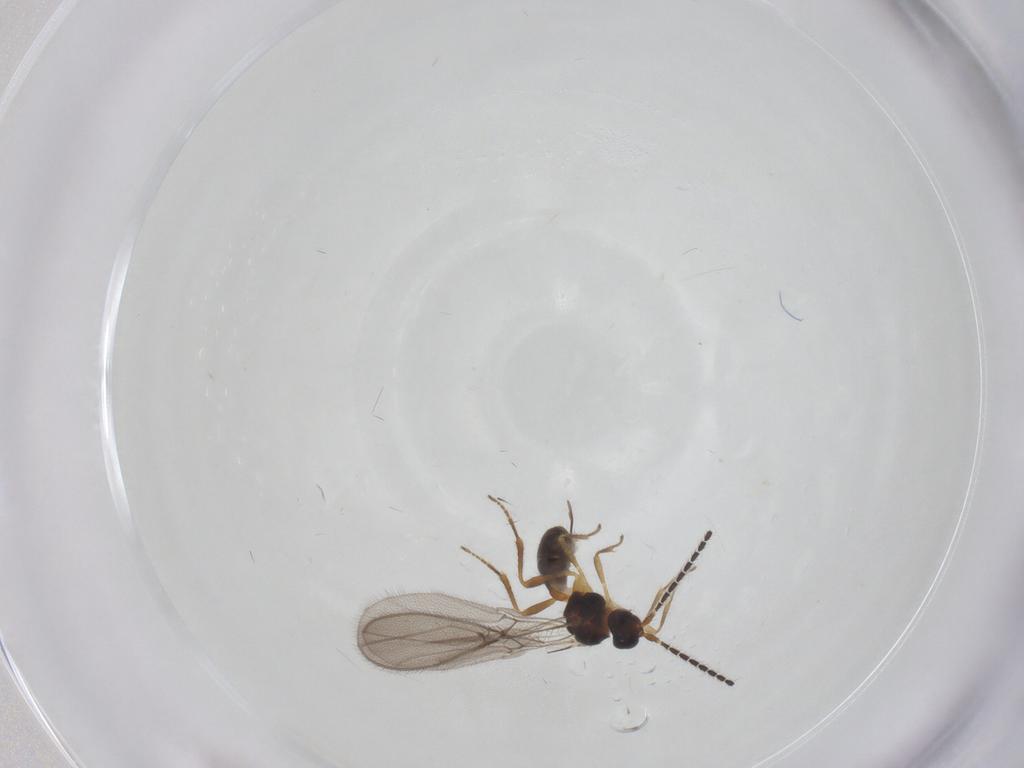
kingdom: Animalia
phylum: Arthropoda
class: Insecta
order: Hymenoptera
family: Braconidae
